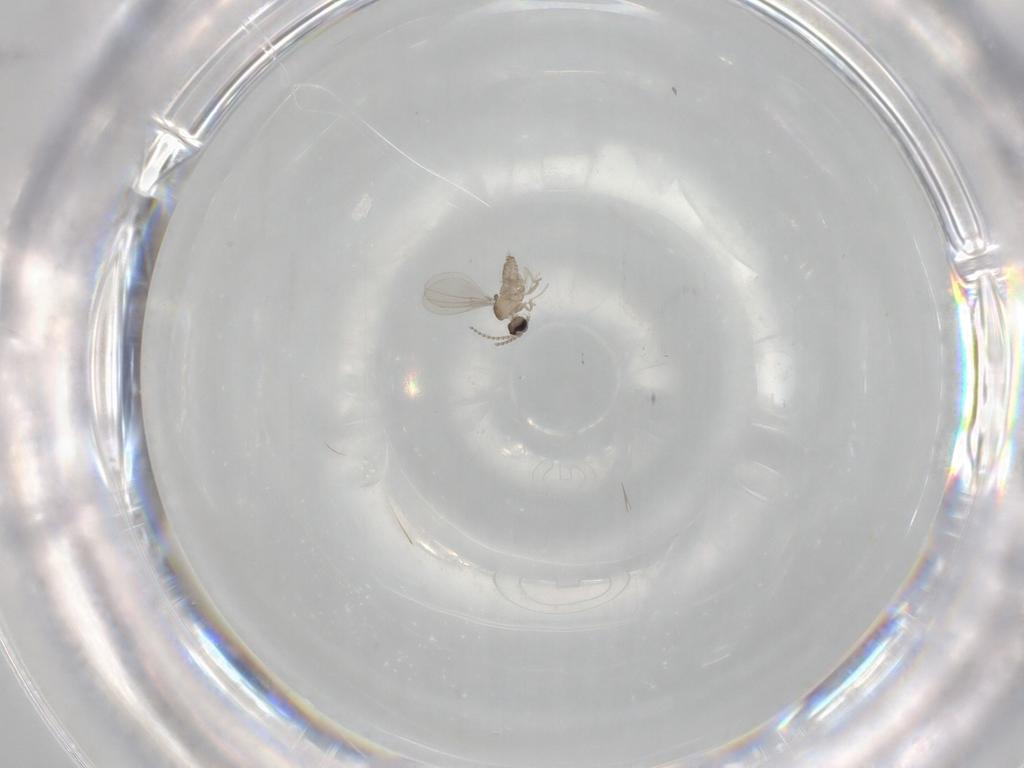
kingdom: Animalia
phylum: Arthropoda
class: Insecta
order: Diptera
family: Cecidomyiidae
